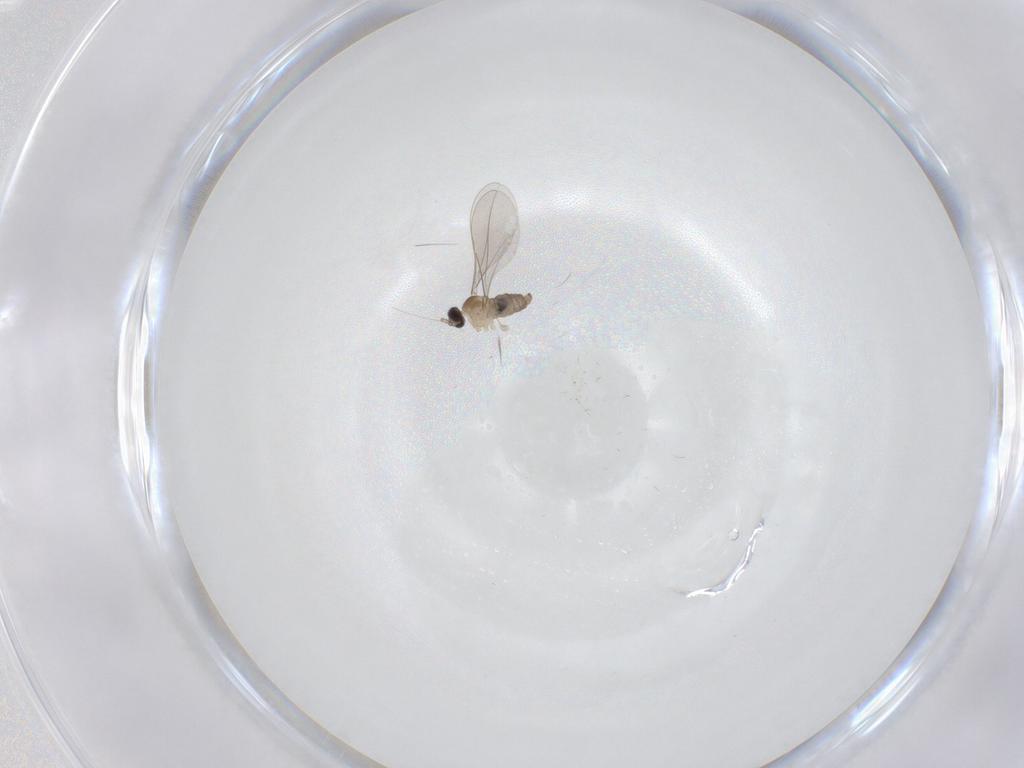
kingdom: Animalia
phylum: Arthropoda
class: Insecta
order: Diptera
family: Cecidomyiidae
